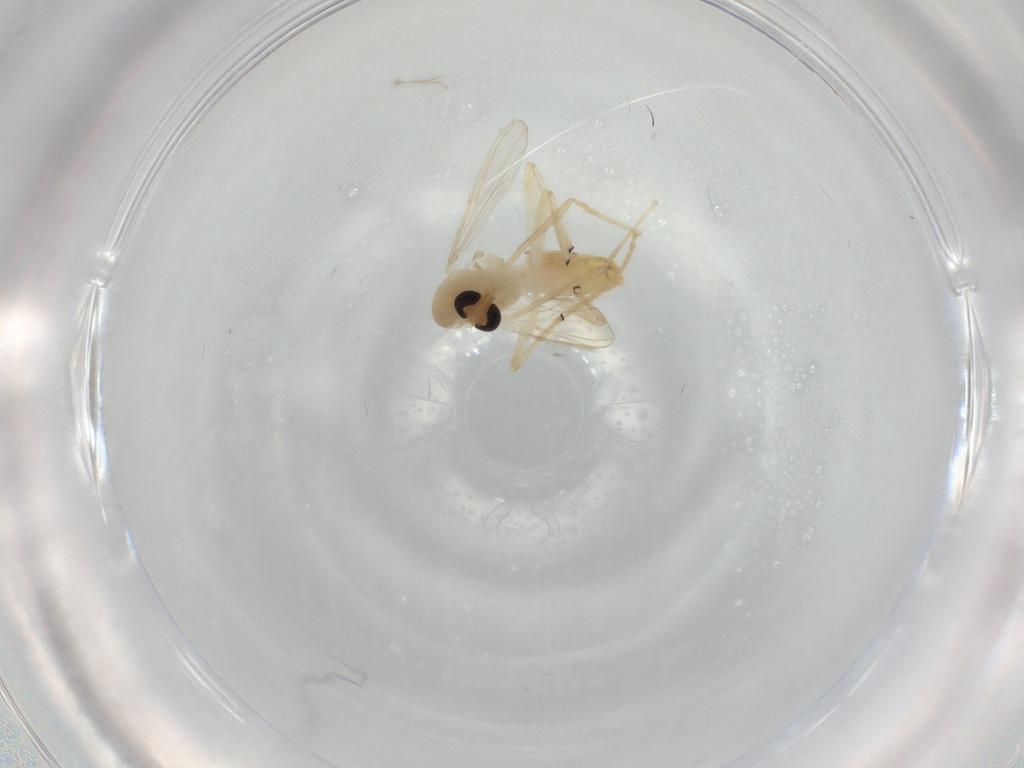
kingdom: Animalia
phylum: Arthropoda
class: Insecta
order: Diptera
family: Chironomidae
